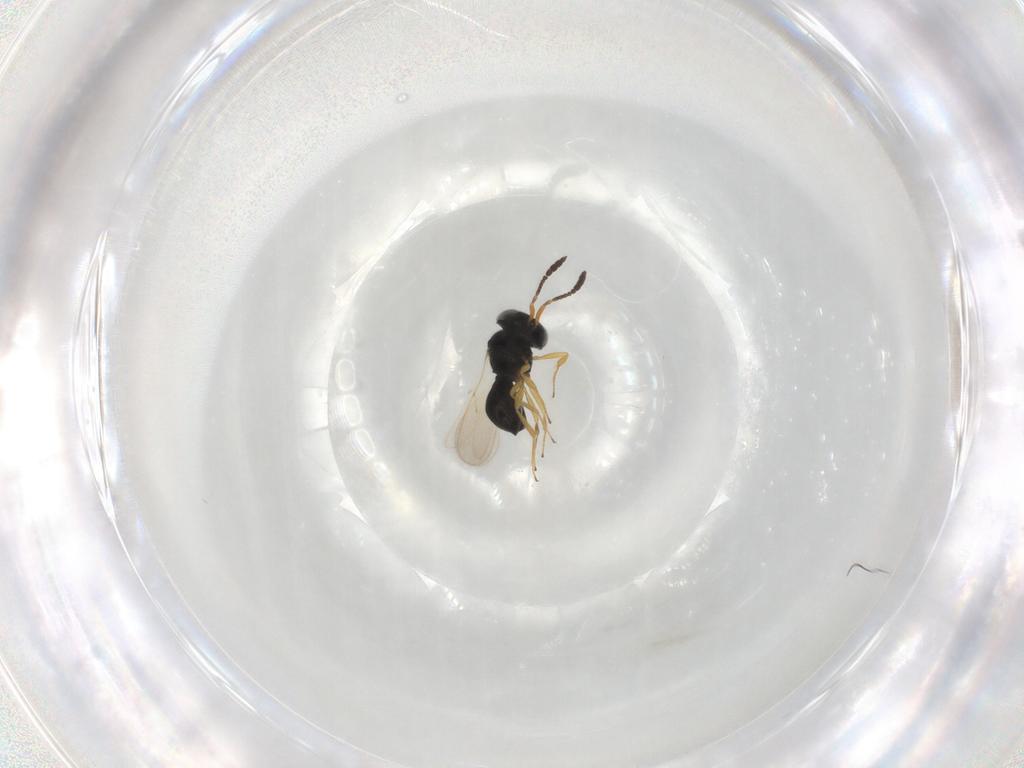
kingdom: Animalia
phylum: Arthropoda
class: Insecta
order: Hymenoptera
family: Scelionidae
